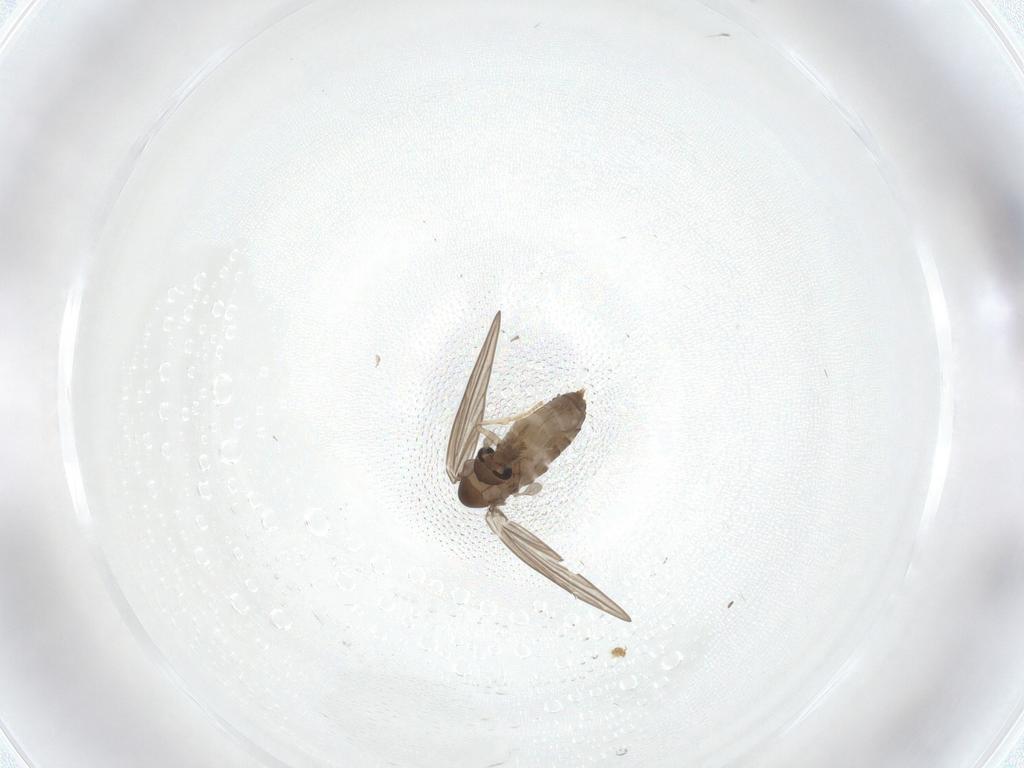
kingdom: Animalia
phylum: Arthropoda
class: Insecta
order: Diptera
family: Psychodidae
